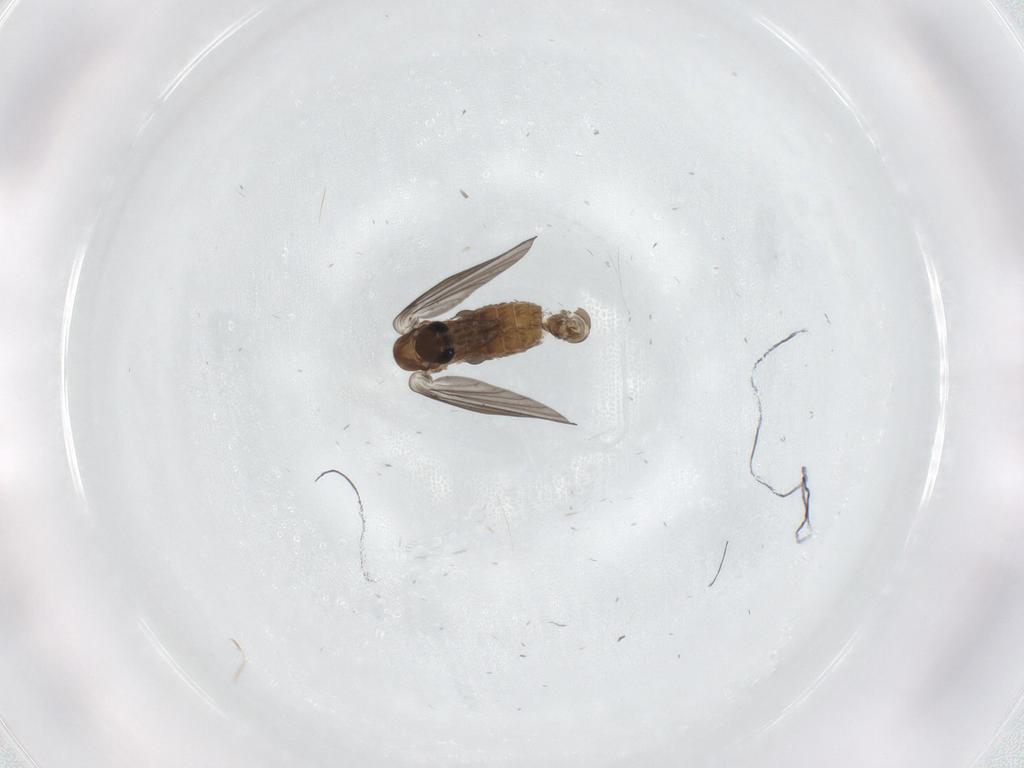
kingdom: Animalia
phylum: Arthropoda
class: Insecta
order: Diptera
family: Psychodidae
